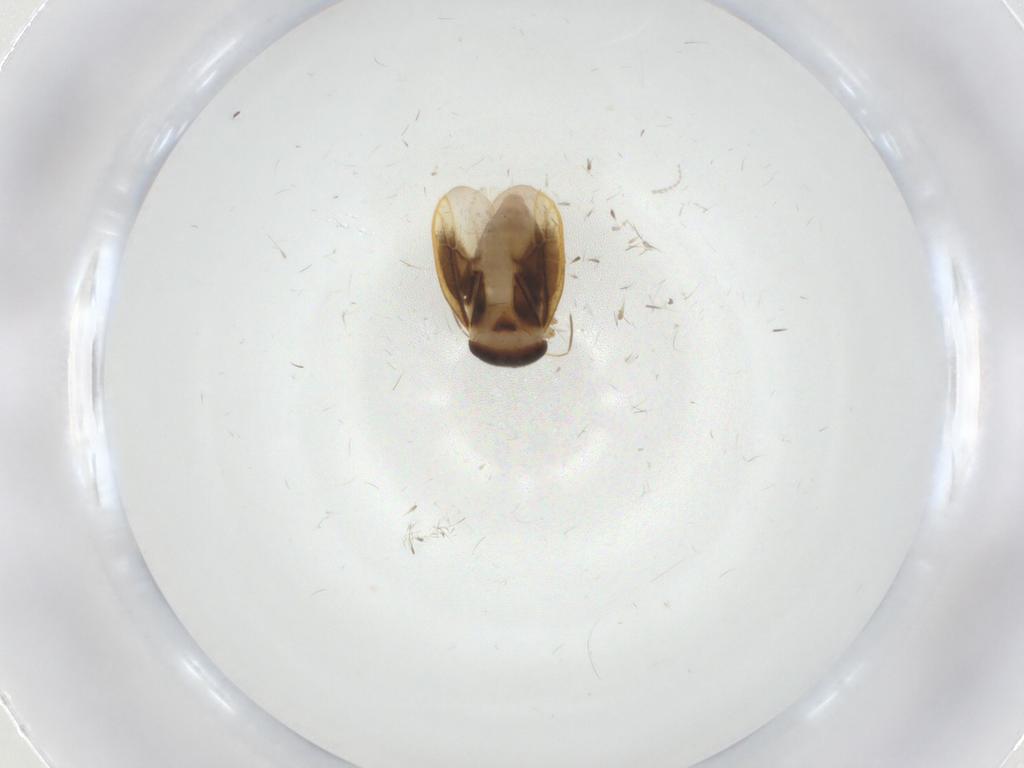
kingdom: Animalia
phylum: Arthropoda
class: Insecta
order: Hemiptera
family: Schizopteridae
